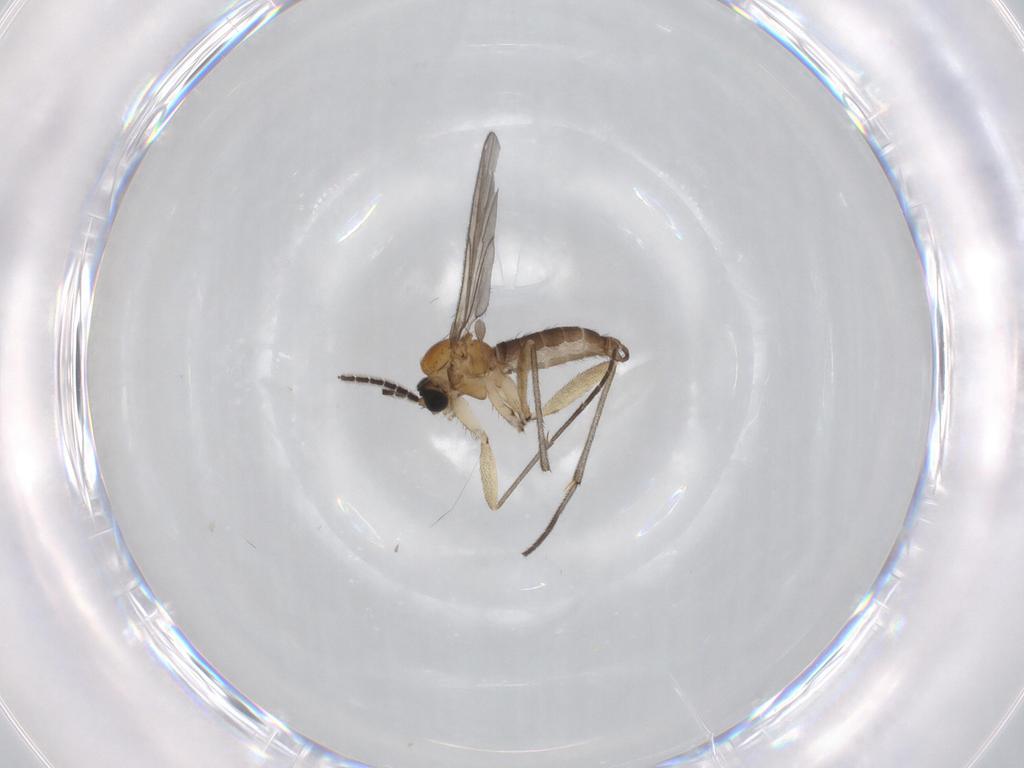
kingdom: Animalia
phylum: Arthropoda
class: Insecta
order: Diptera
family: Sciaridae
